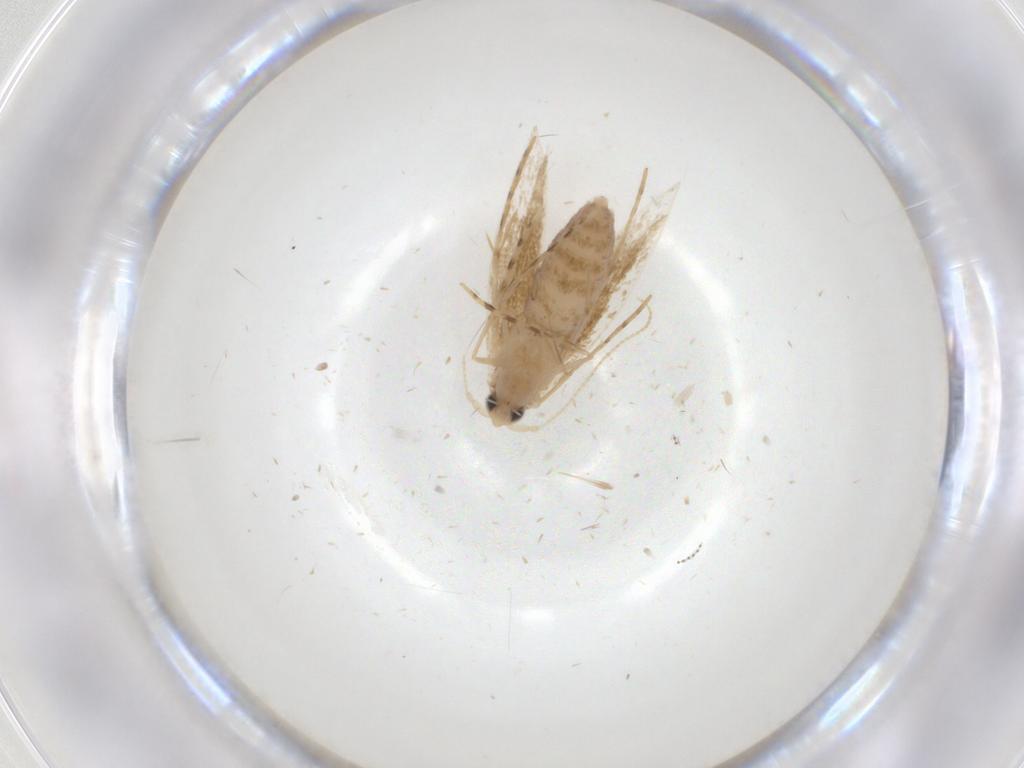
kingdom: Animalia
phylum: Arthropoda
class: Insecta
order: Lepidoptera
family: Lyonetiidae
